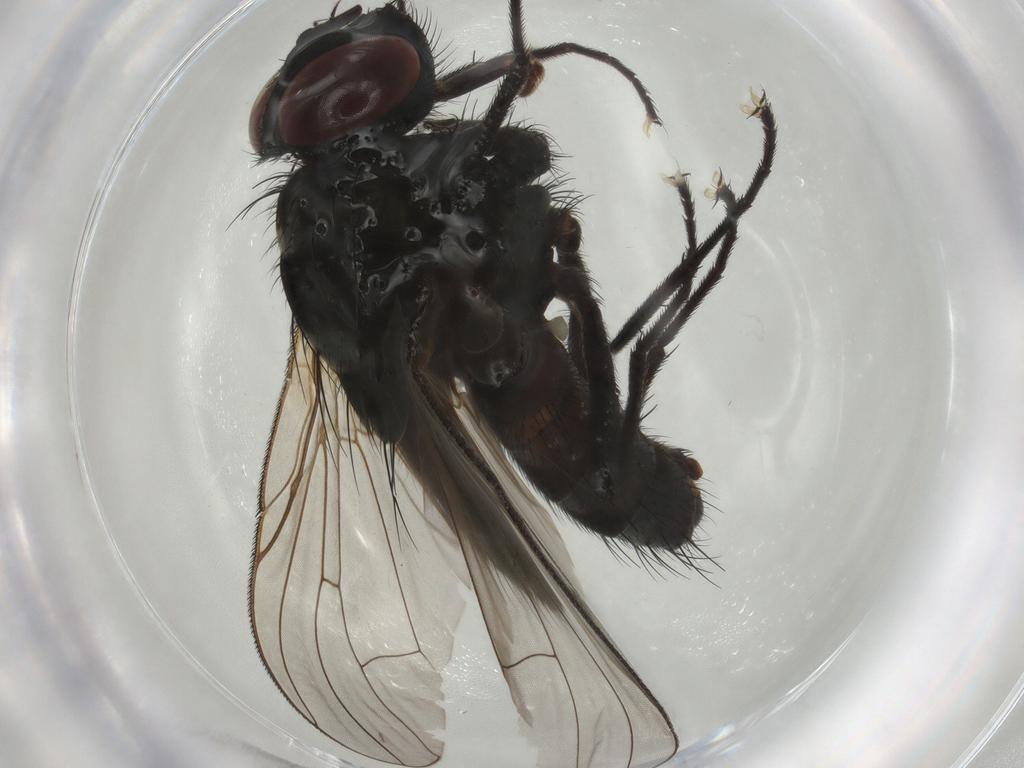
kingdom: Animalia
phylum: Arthropoda
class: Insecta
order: Diptera
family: Muscidae
